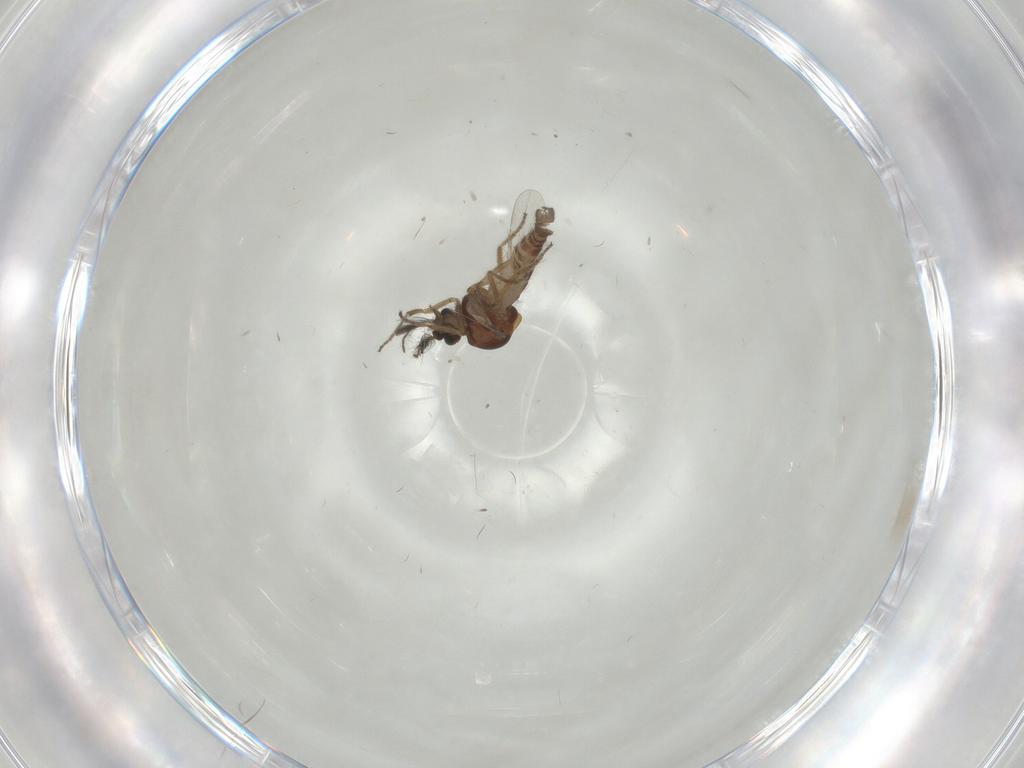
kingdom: Animalia
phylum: Arthropoda
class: Insecta
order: Diptera
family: Ceratopogonidae
